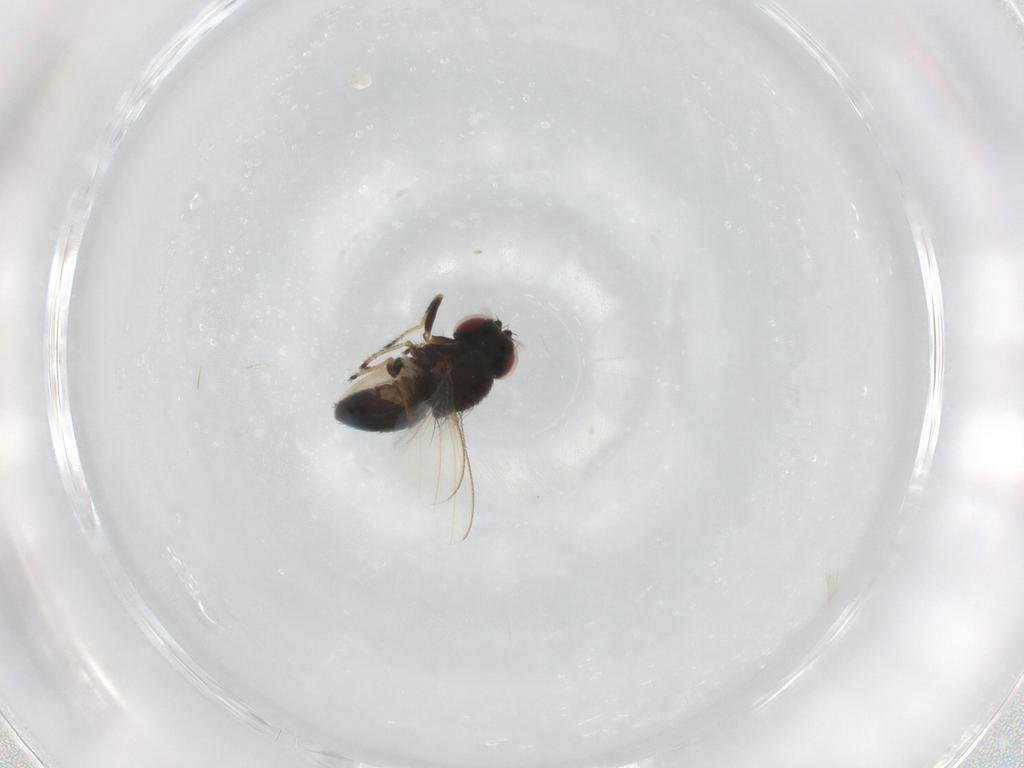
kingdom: Animalia
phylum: Arthropoda
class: Insecta
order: Diptera
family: Ephydridae
